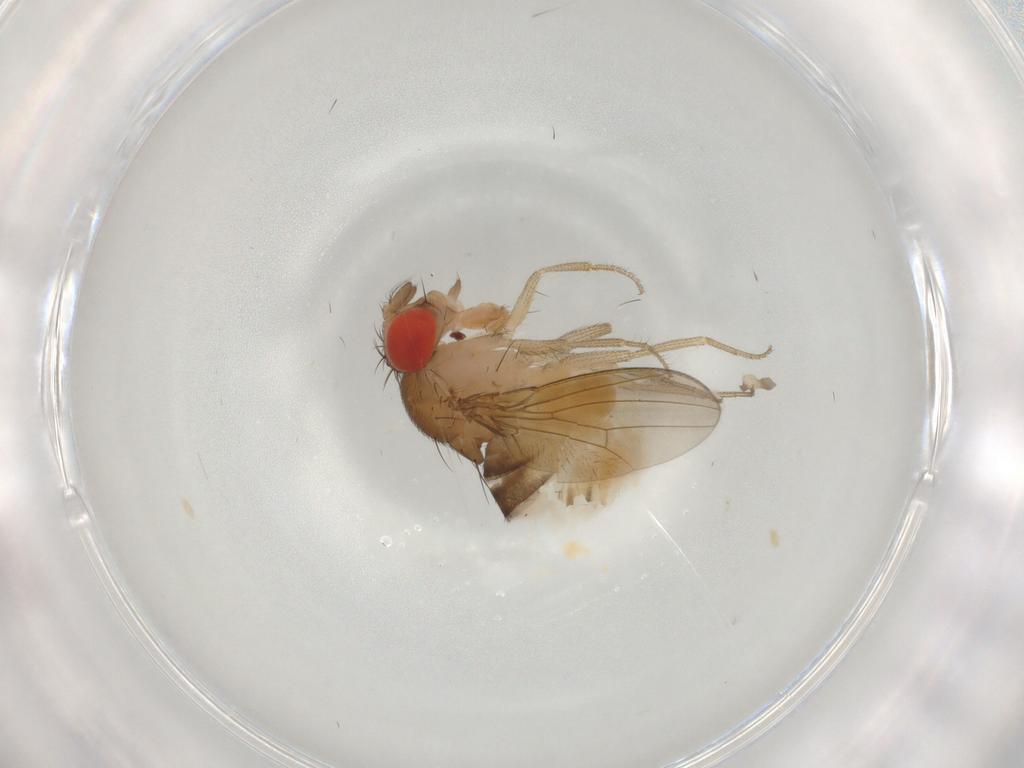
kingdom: Animalia
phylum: Arthropoda
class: Insecta
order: Diptera
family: Drosophilidae
